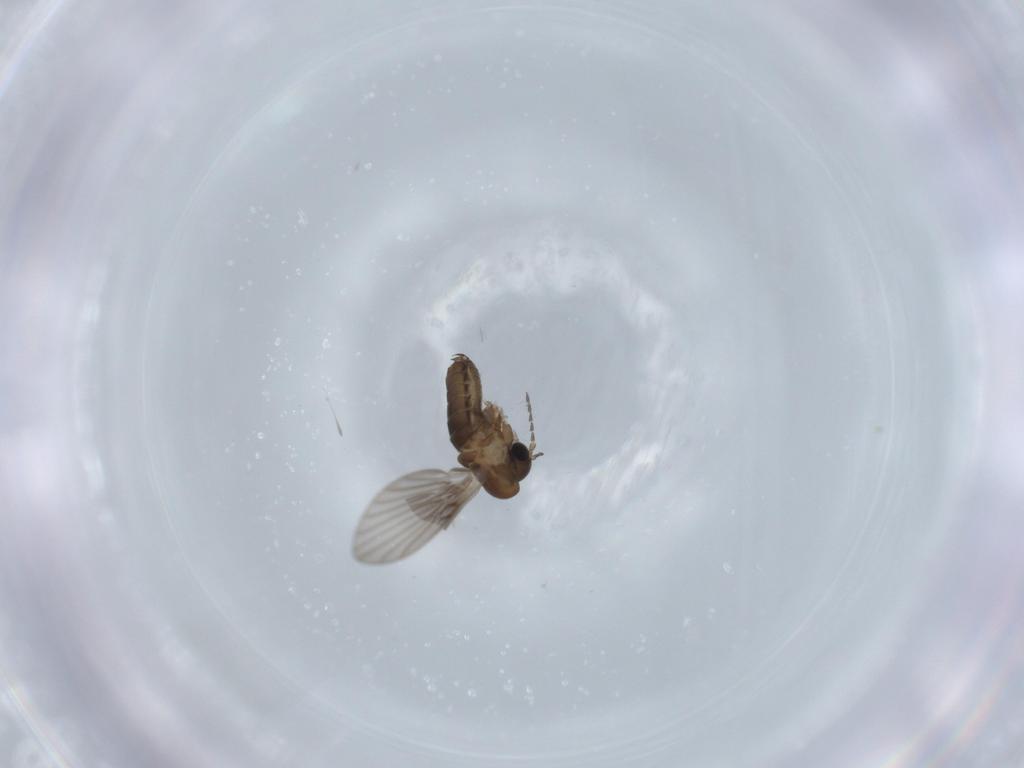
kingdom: Animalia
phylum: Arthropoda
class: Insecta
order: Diptera
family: Psychodidae
